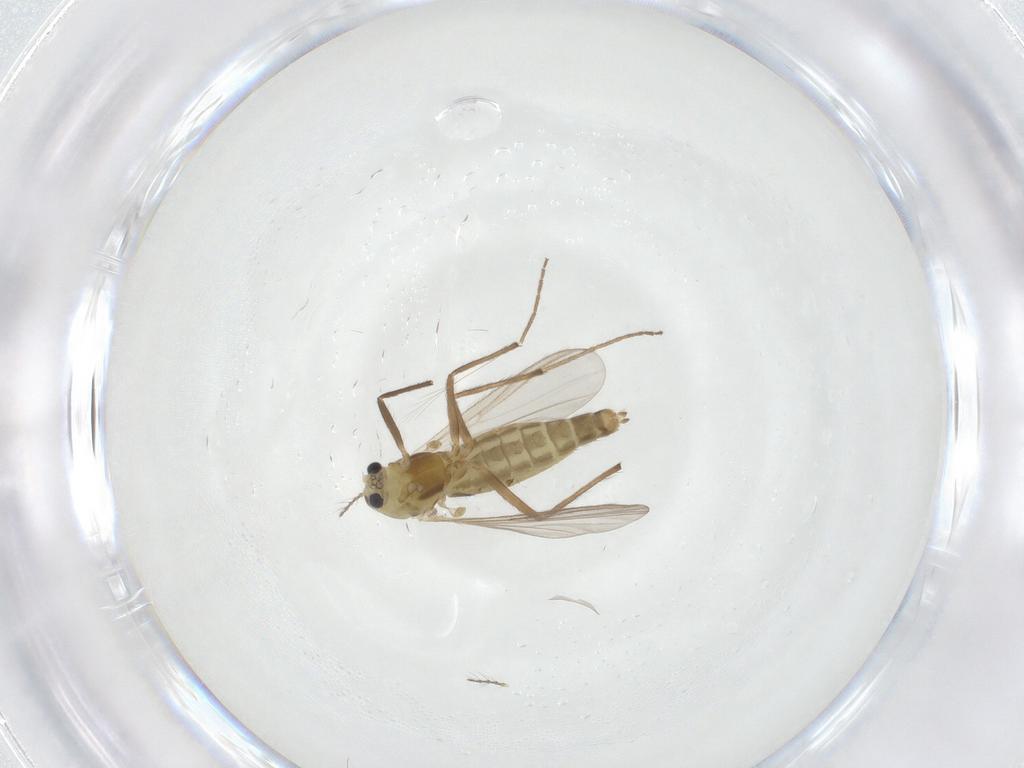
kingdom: Animalia
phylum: Arthropoda
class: Insecta
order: Diptera
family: Chironomidae
